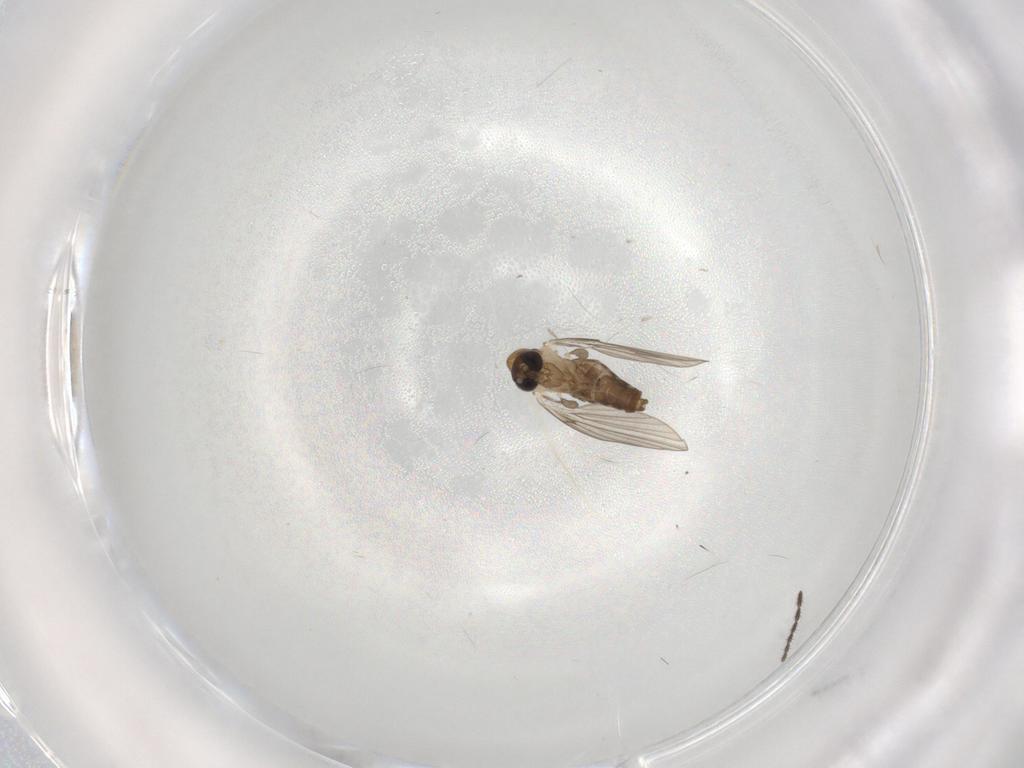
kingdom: Animalia
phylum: Arthropoda
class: Insecta
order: Diptera
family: Psychodidae
